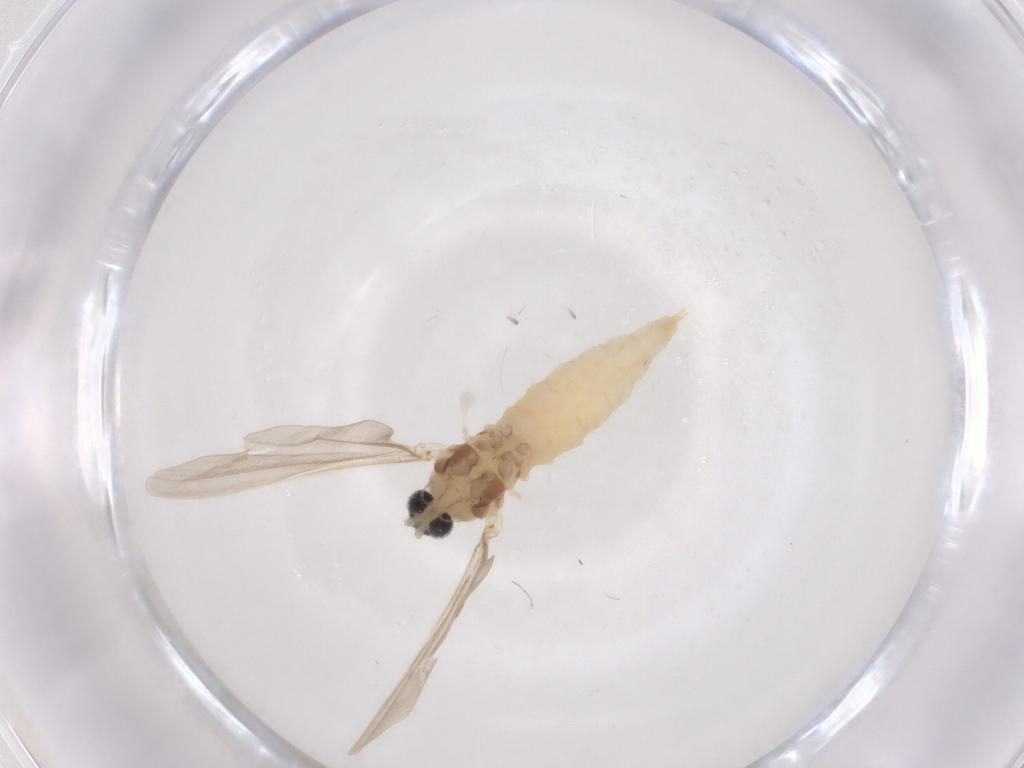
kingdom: Animalia
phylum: Arthropoda
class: Insecta
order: Diptera
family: Cecidomyiidae
